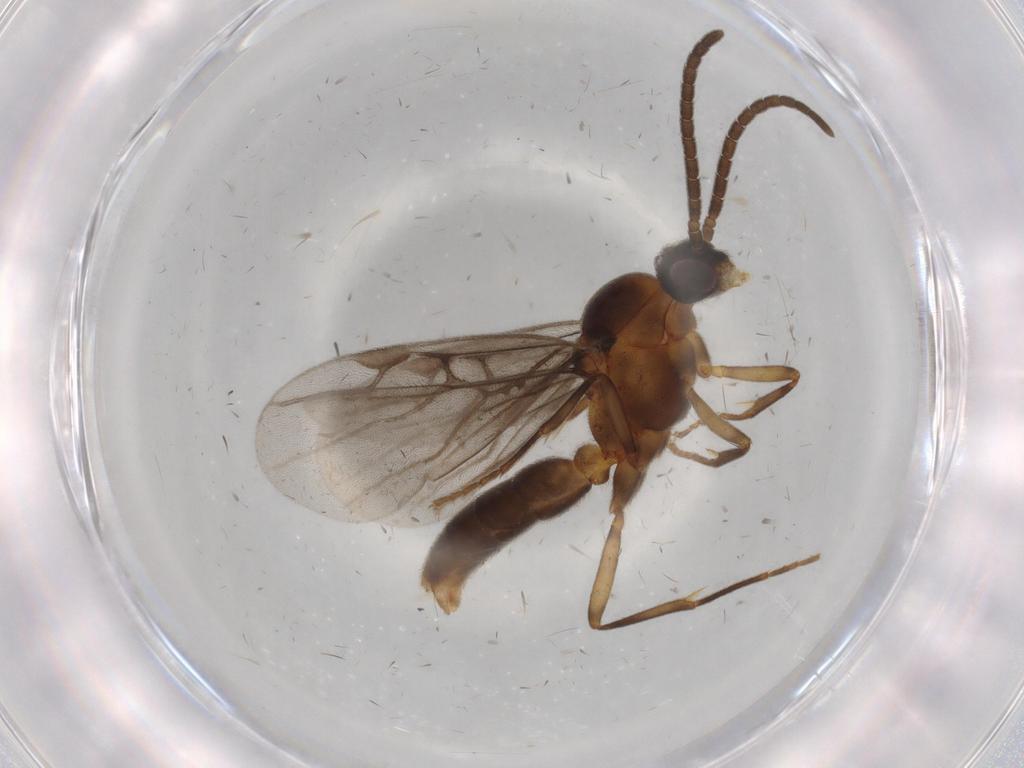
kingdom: Animalia
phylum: Arthropoda
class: Insecta
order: Hymenoptera
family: Formicidae
